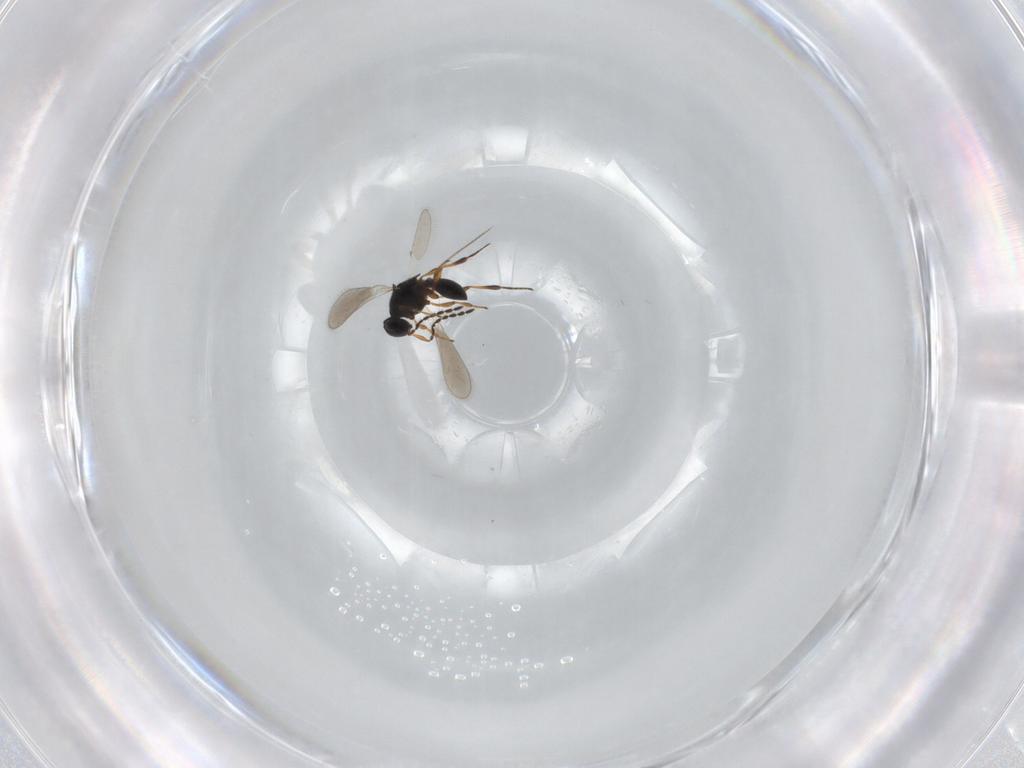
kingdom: Animalia
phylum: Arthropoda
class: Insecta
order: Hymenoptera
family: Platygastridae
